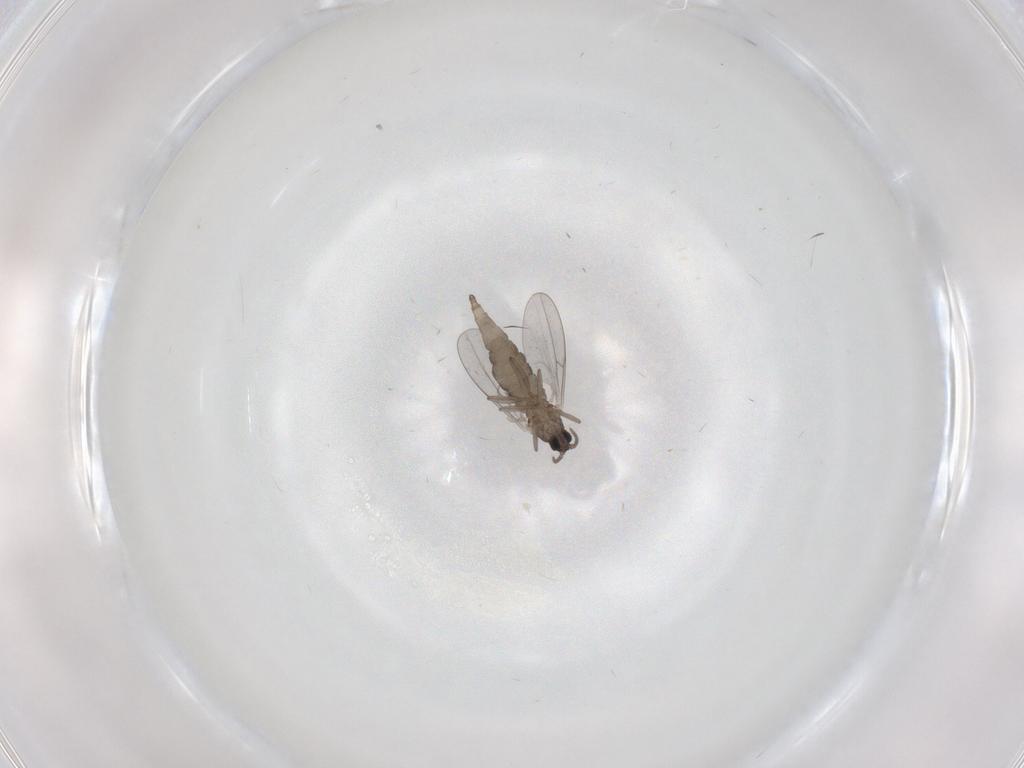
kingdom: Animalia
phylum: Arthropoda
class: Insecta
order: Diptera
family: Cecidomyiidae
